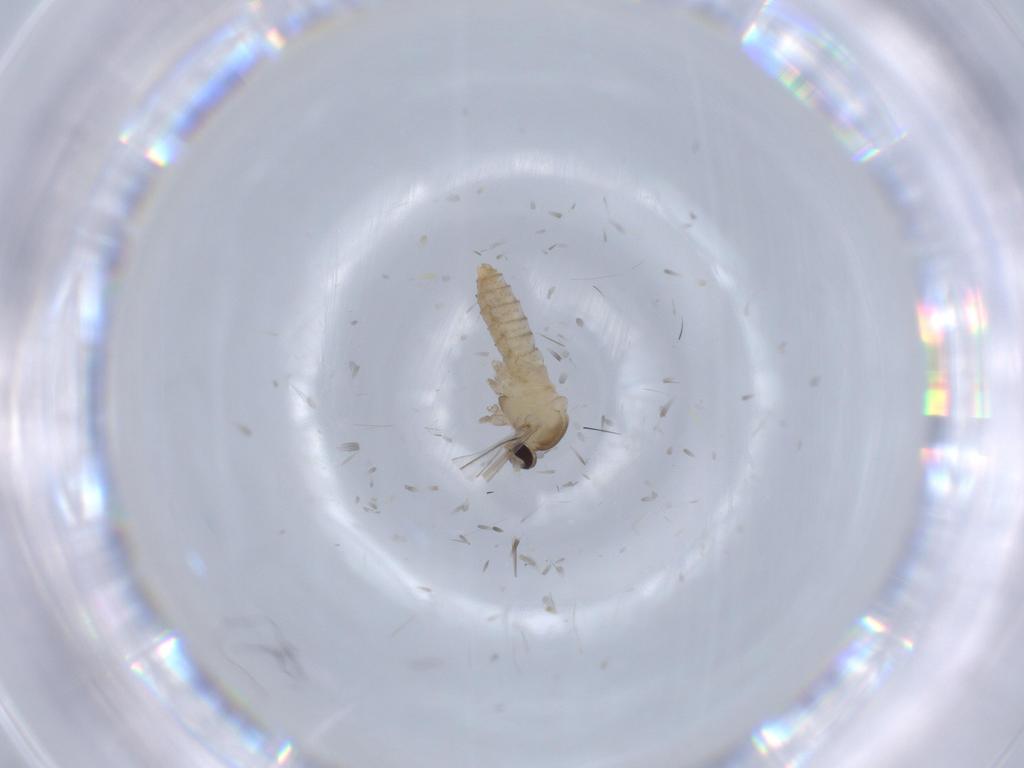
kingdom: Animalia
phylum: Arthropoda
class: Insecta
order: Diptera
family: Cecidomyiidae
